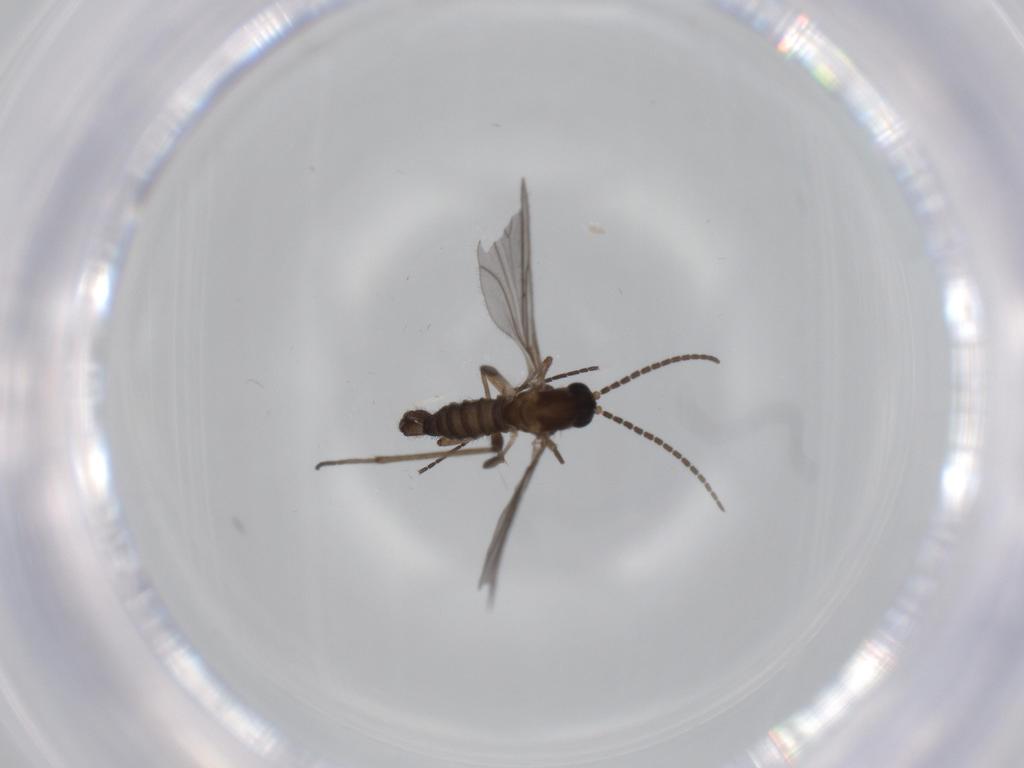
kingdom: Animalia
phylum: Arthropoda
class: Insecta
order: Diptera
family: Sciaridae
